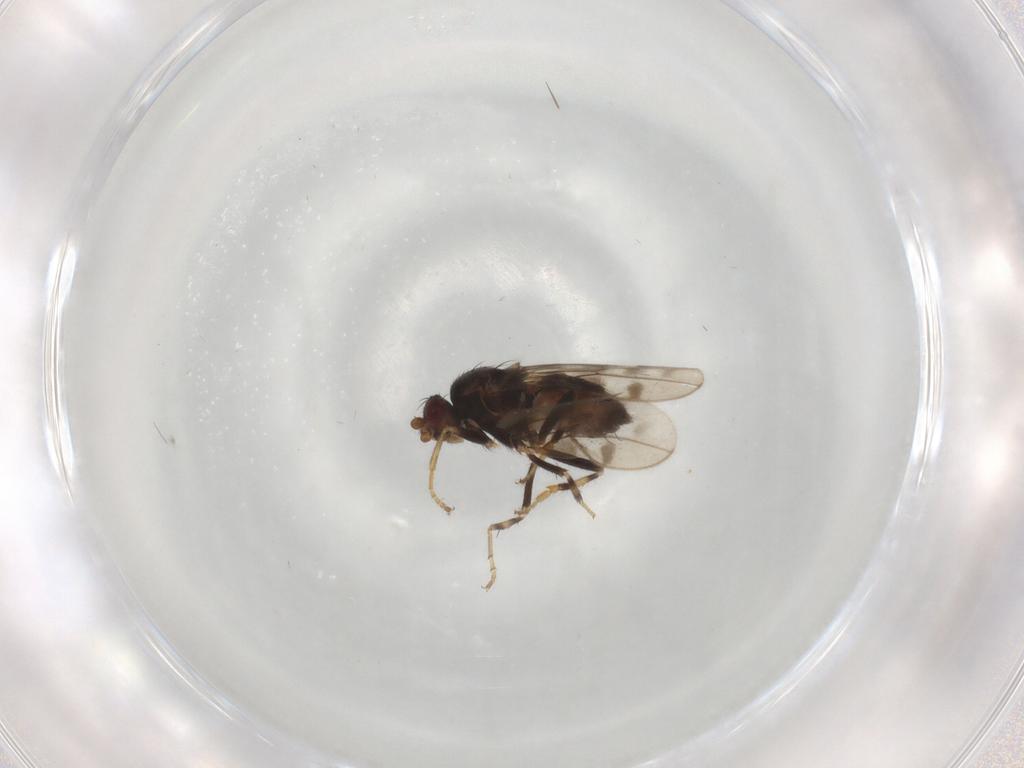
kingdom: Animalia
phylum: Arthropoda
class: Insecta
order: Diptera
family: Sphaeroceridae
